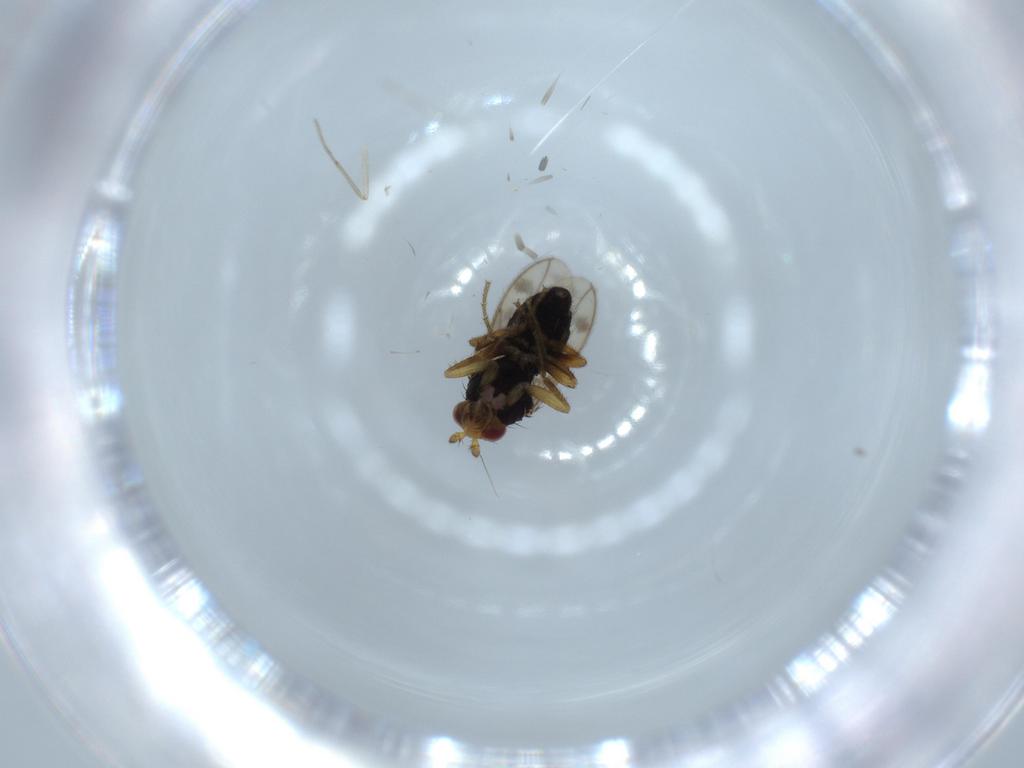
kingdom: Animalia
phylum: Arthropoda
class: Insecta
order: Diptera
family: Sphaeroceridae
